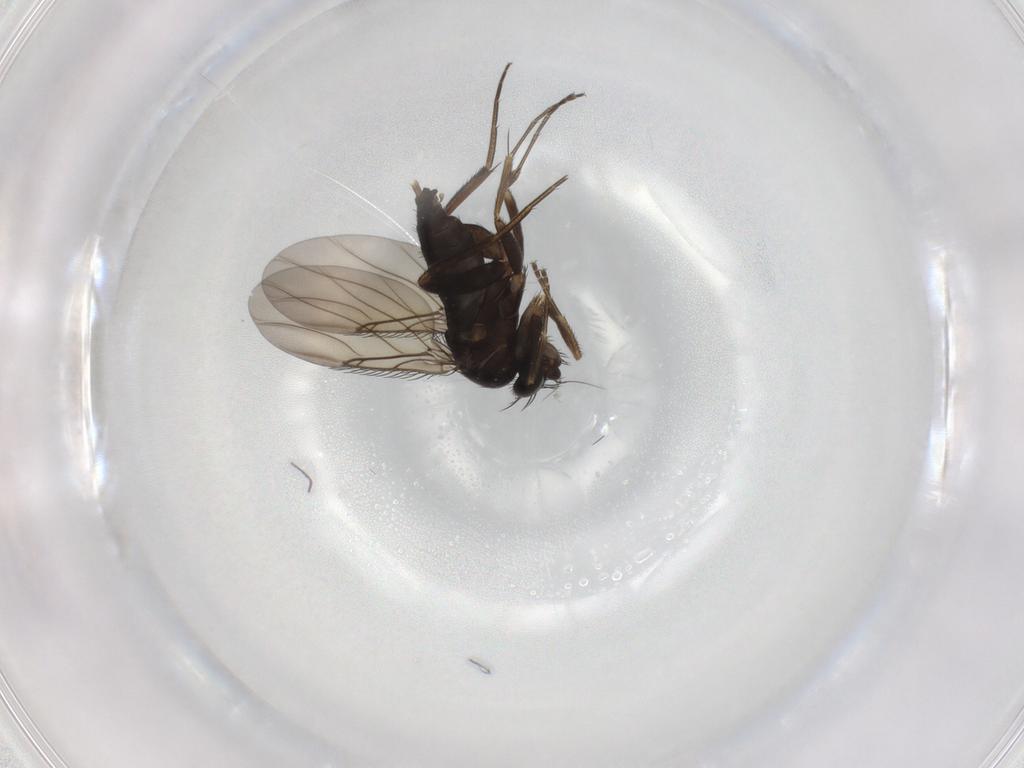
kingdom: Animalia
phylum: Arthropoda
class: Insecta
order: Diptera
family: Phoridae
